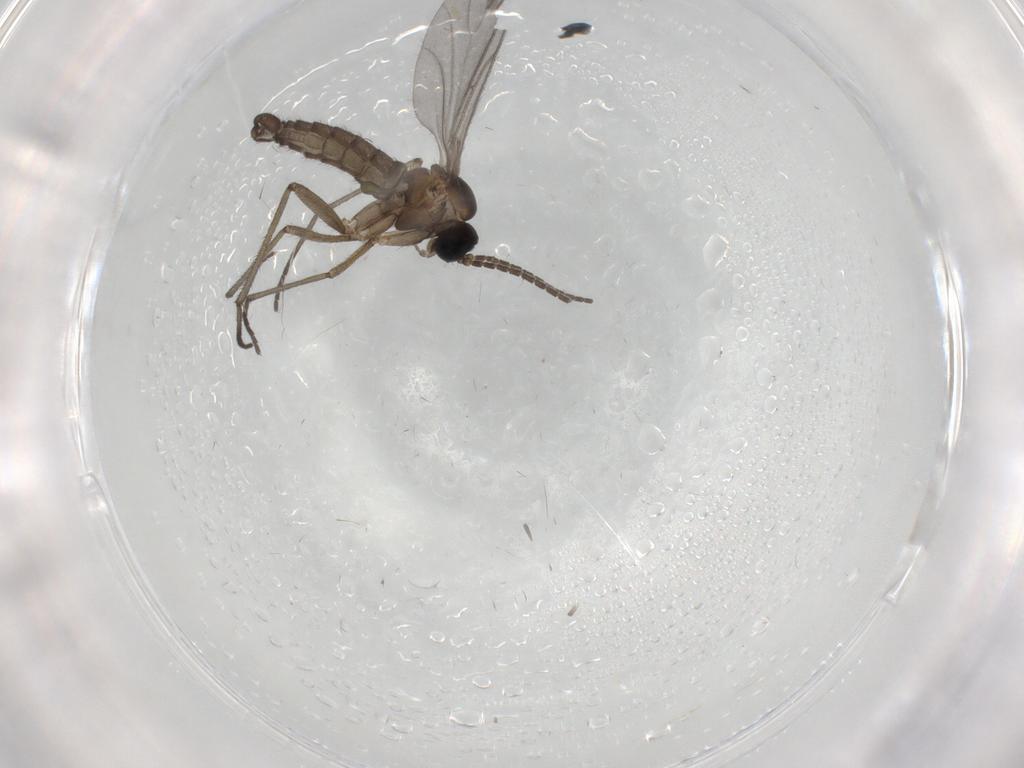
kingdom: Animalia
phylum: Arthropoda
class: Insecta
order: Diptera
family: Sciaridae
